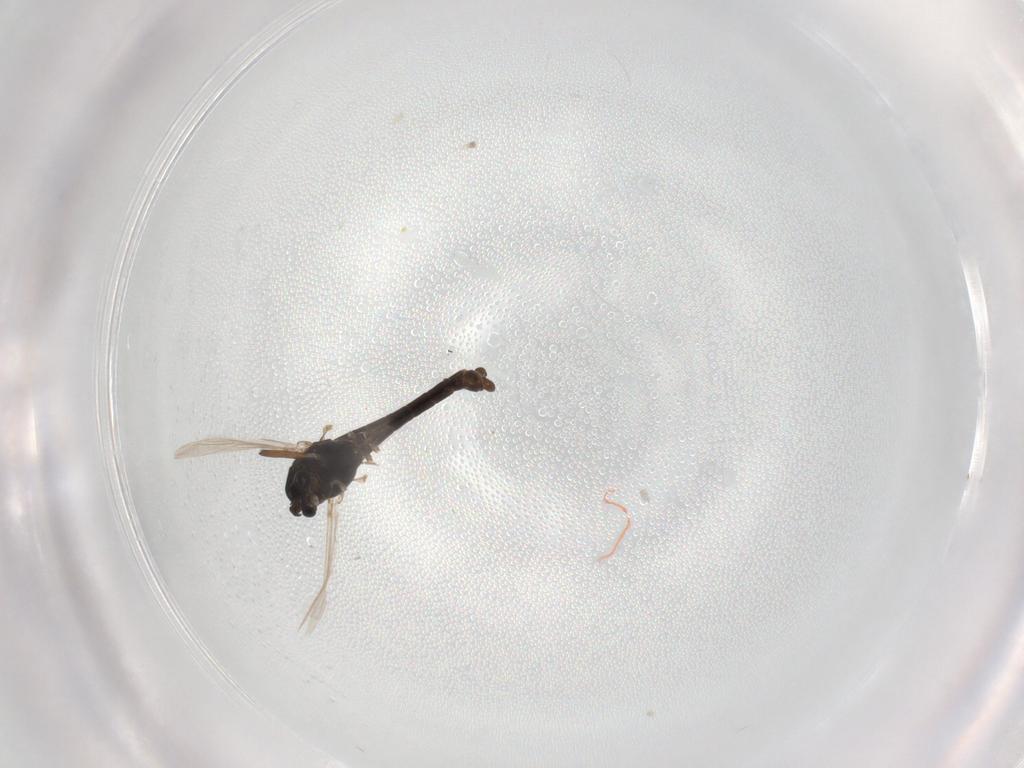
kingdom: Animalia
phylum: Arthropoda
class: Insecta
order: Diptera
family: Chironomidae
